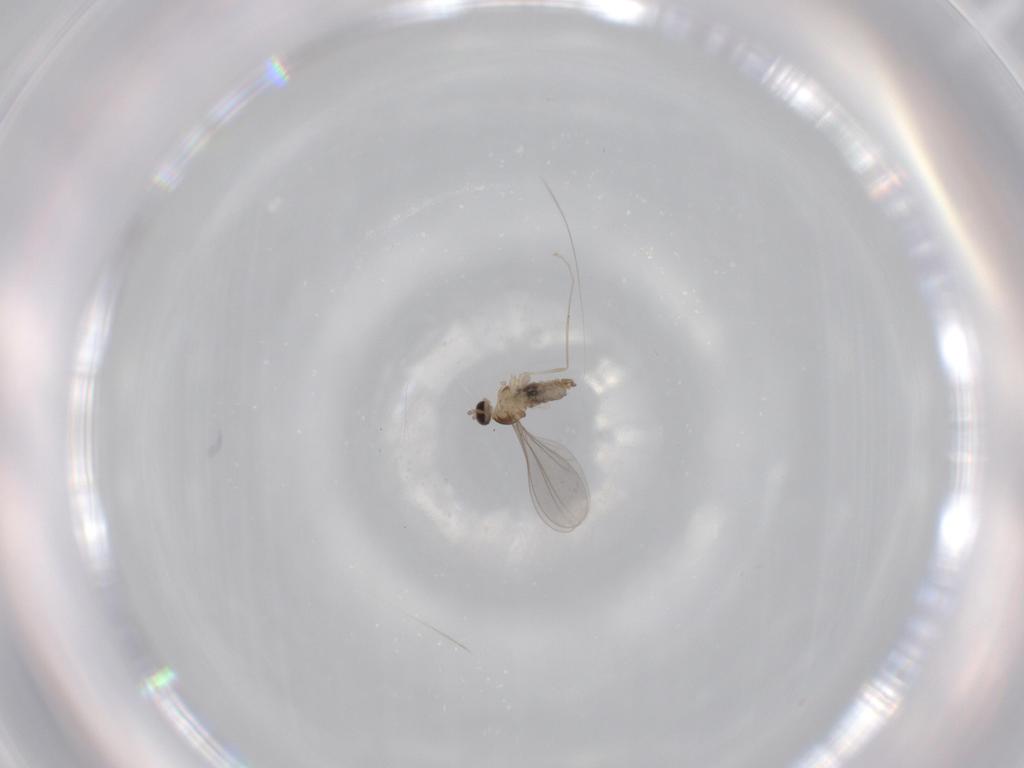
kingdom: Animalia
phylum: Arthropoda
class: Insecta
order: Diptera
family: Cecidomyiidae
